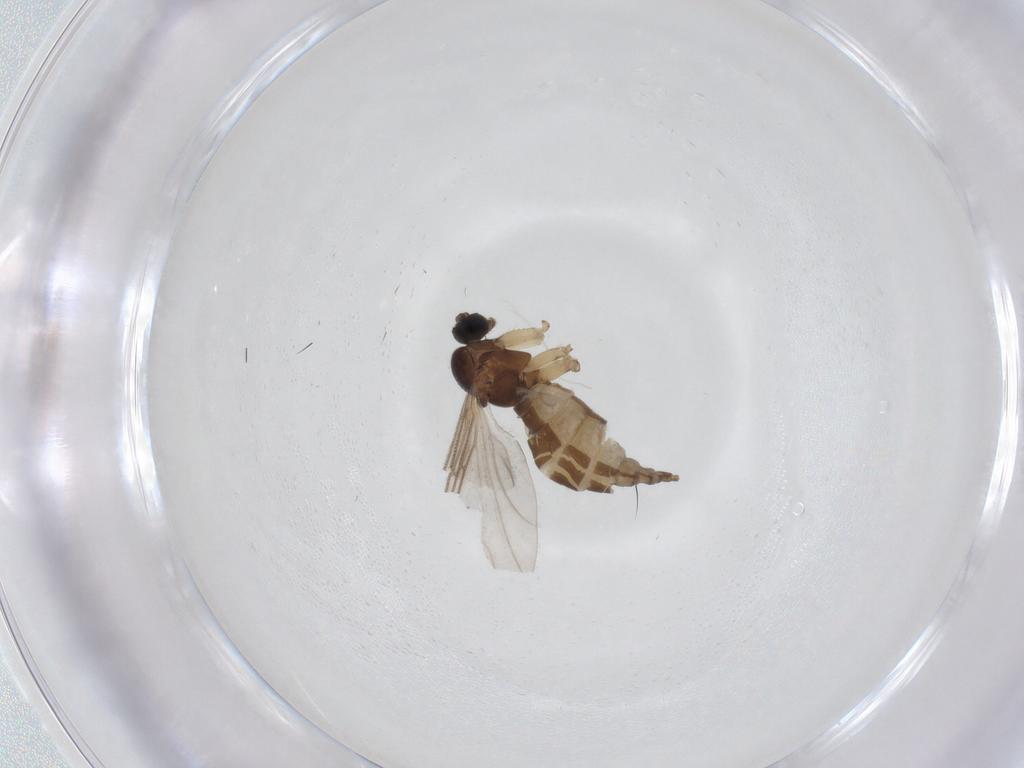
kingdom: Animalia
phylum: Arthropoda
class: Insecta
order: Diptera
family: Sciaridae
